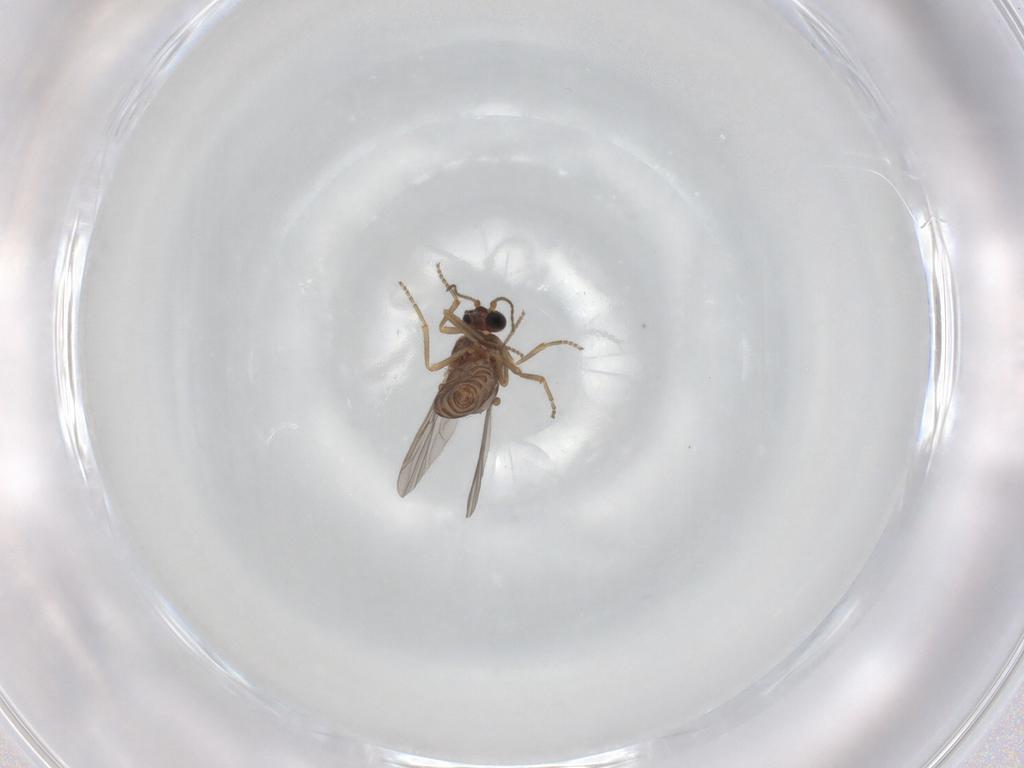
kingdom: Animalia
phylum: Arthropoda
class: Insecta
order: Diptera
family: Ceratopogonidae
